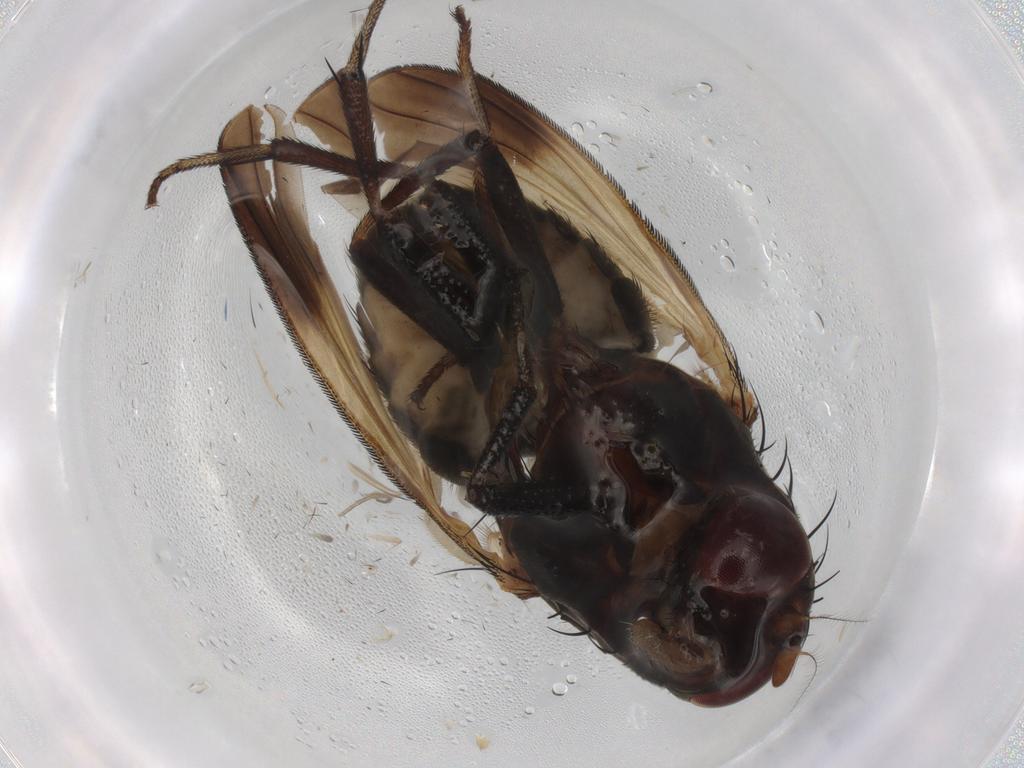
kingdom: Animalia
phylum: Arthropoda
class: Insecta
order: Diptera
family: Lauxaniidae
